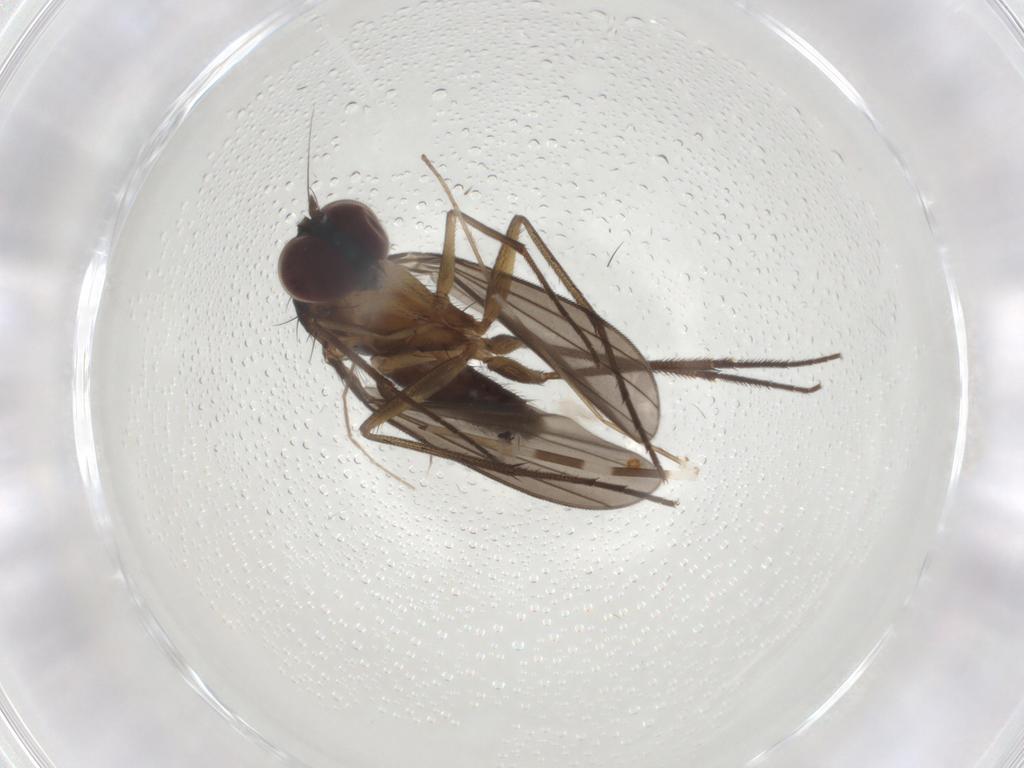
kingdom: Animalia
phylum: Arthropoda
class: Insecta
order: Diptera
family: Dolichopodidae
